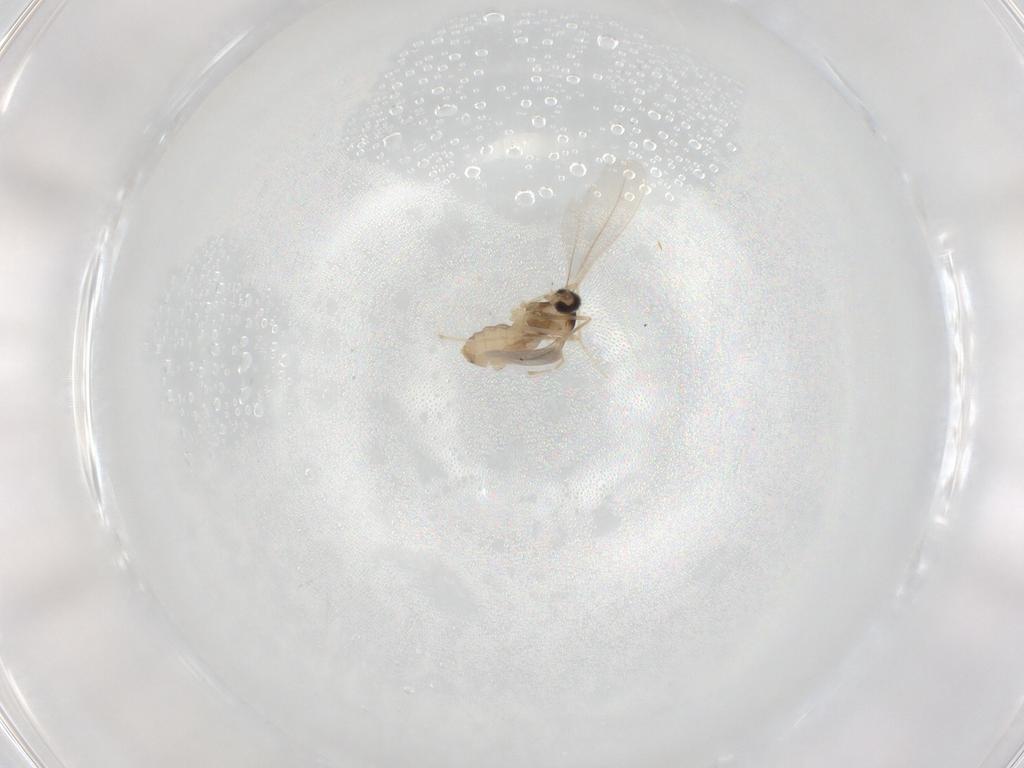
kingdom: Animalia
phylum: Arthropoda
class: Insecta
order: Diptera
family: Cecidomyiidae
